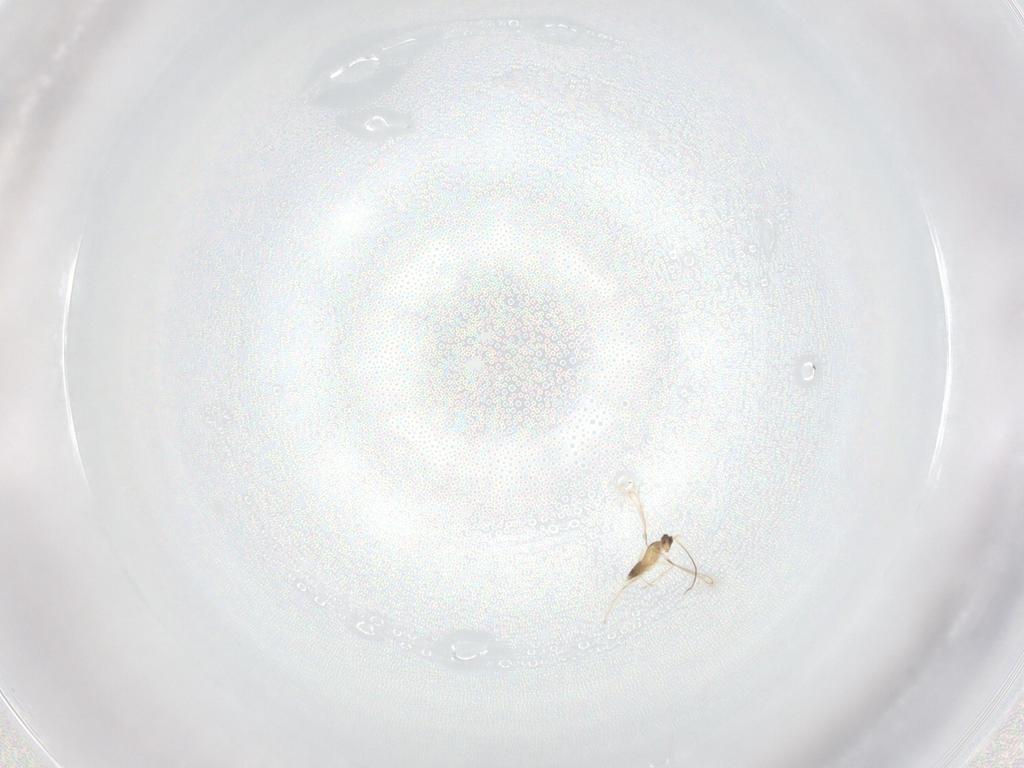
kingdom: Animalia
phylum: Arthropoda
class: Insecta
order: Hymenoptera
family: Mymaridae
